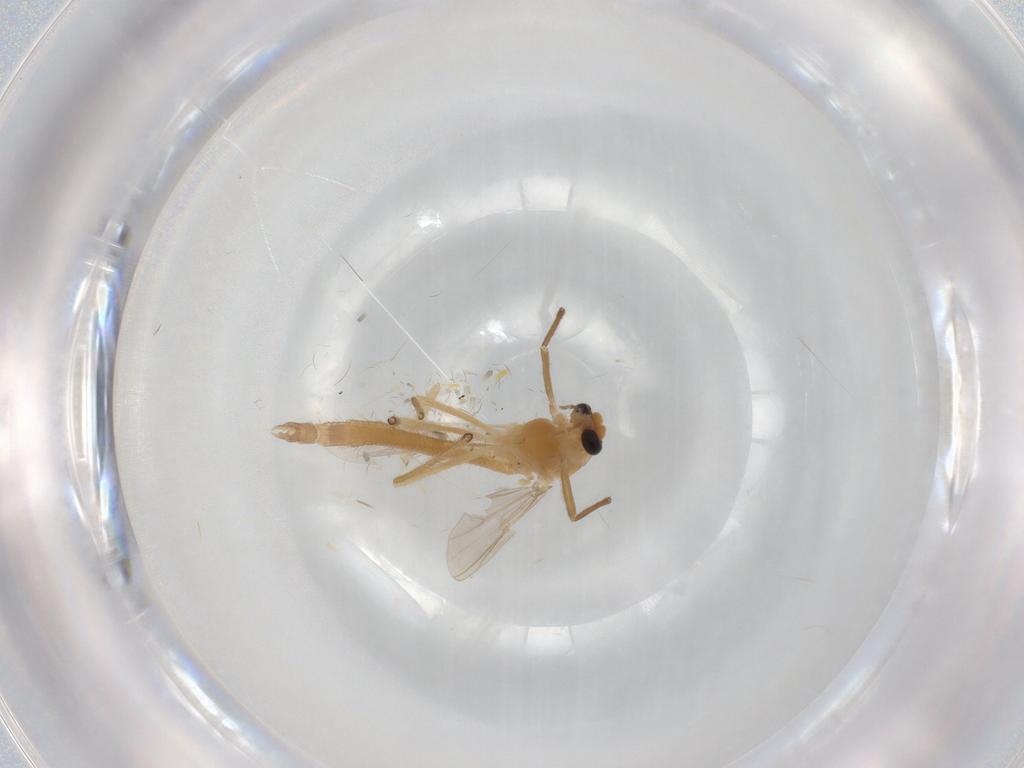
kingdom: Animalia
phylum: Arthropoda
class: Insecta
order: Diptera
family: Chironomidae
